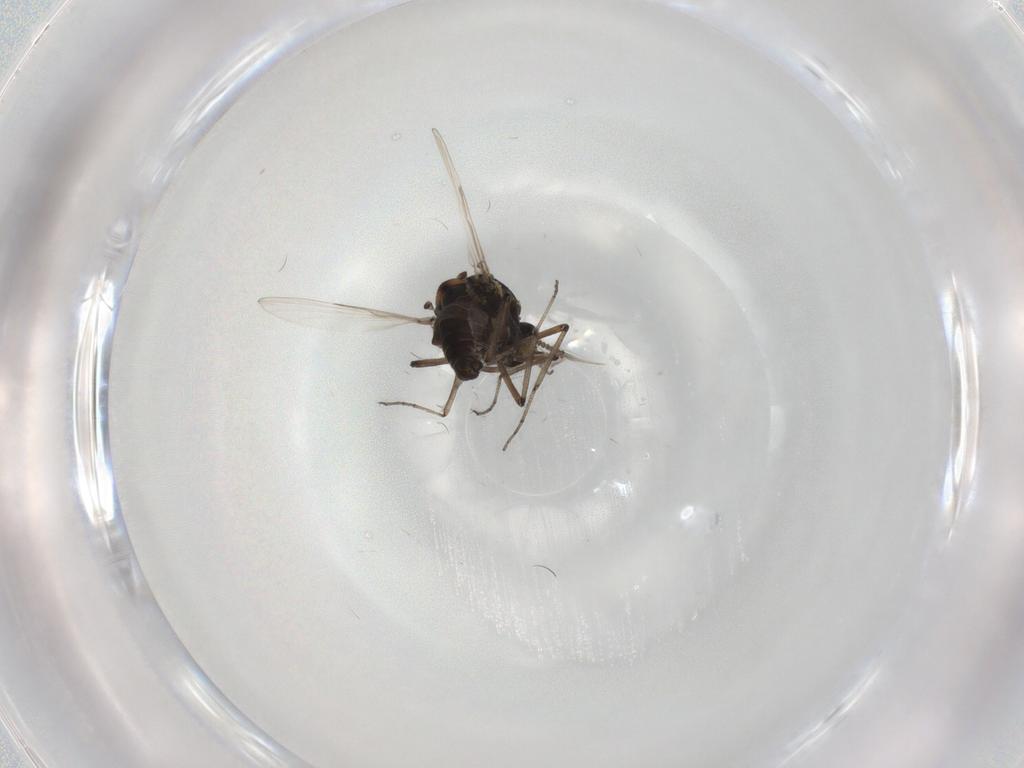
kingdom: Animalia
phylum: Arthropoda
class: Insecta
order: Diptera
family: Ceratopogonidae
